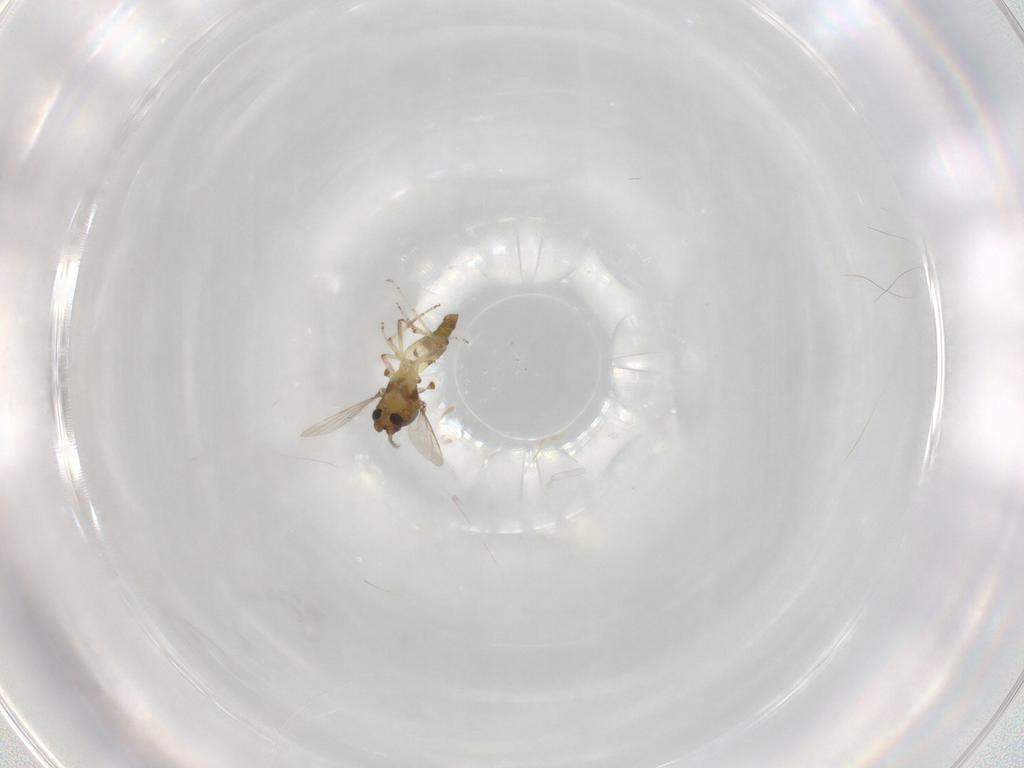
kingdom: Animalia
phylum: Arthropoda
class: Insecta
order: Diptera
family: Ceratopogonidae
